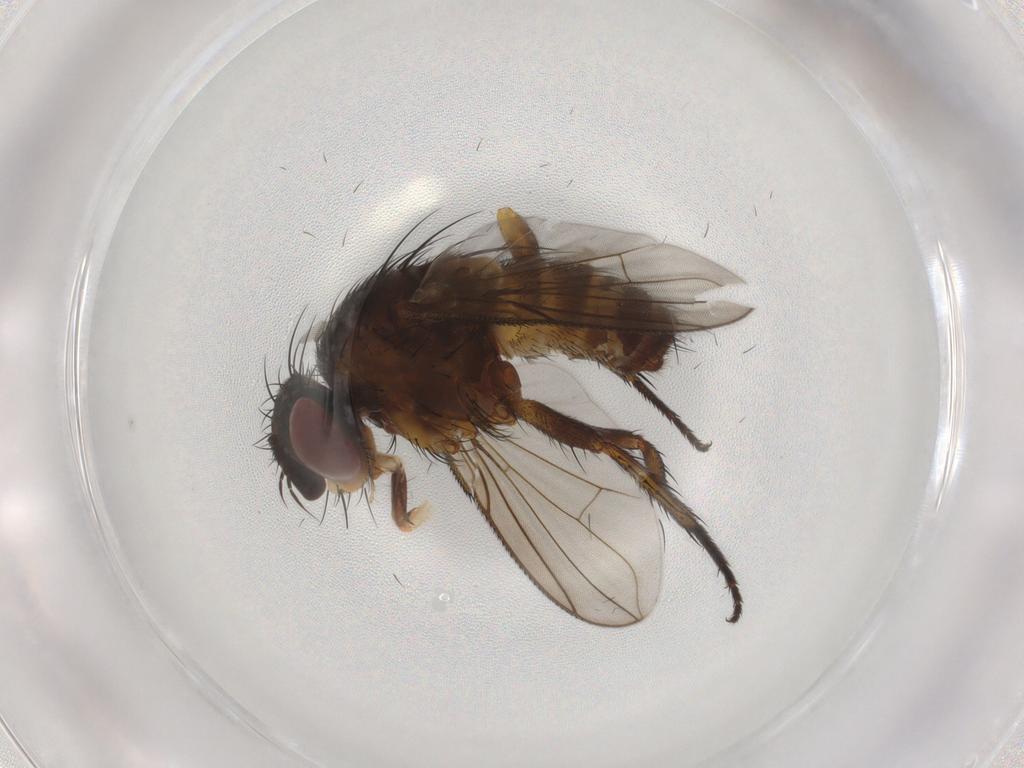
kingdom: Animalia
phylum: Arthropoda
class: Insecta
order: Diptera
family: Tachinidae
